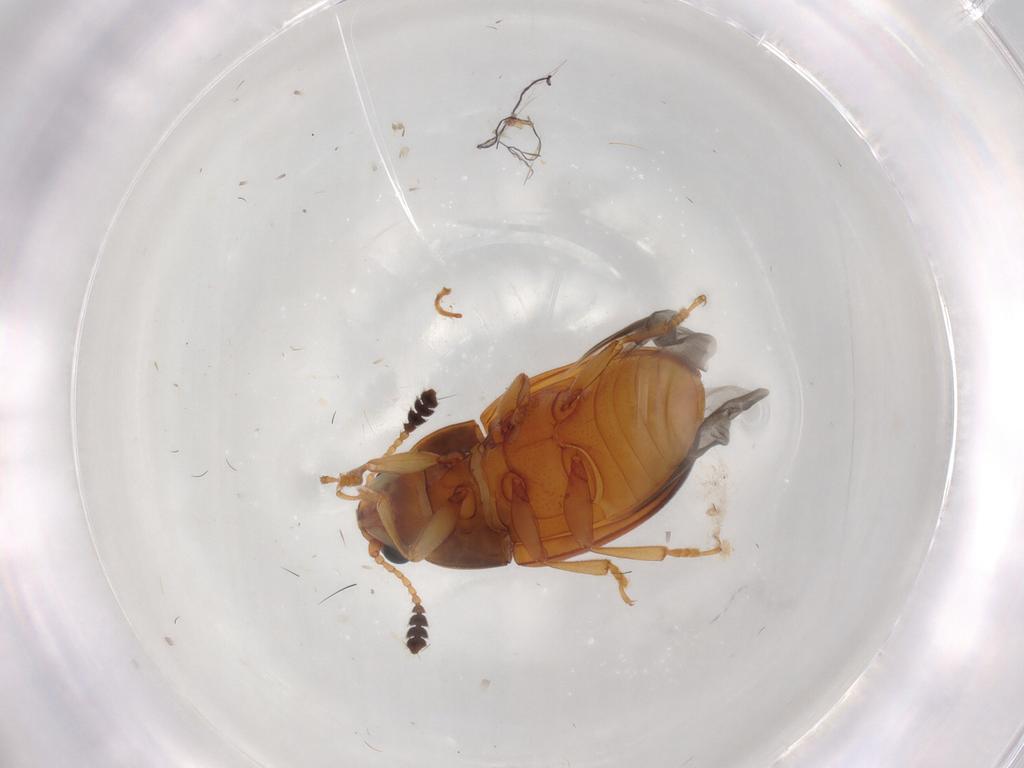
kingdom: Animalia
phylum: Arthropoda
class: Insecta
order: Coleoptera
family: Erotylidae
